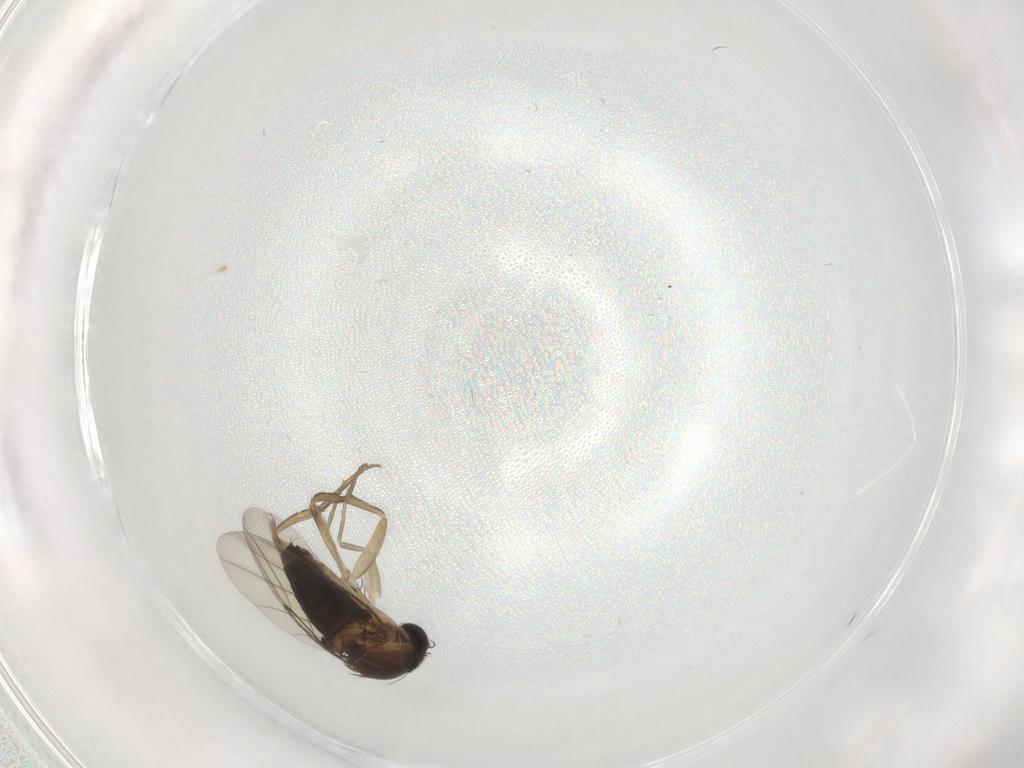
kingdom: Animalia
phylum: Arthropoda
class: Insecta
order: Diptera
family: Phoridae
